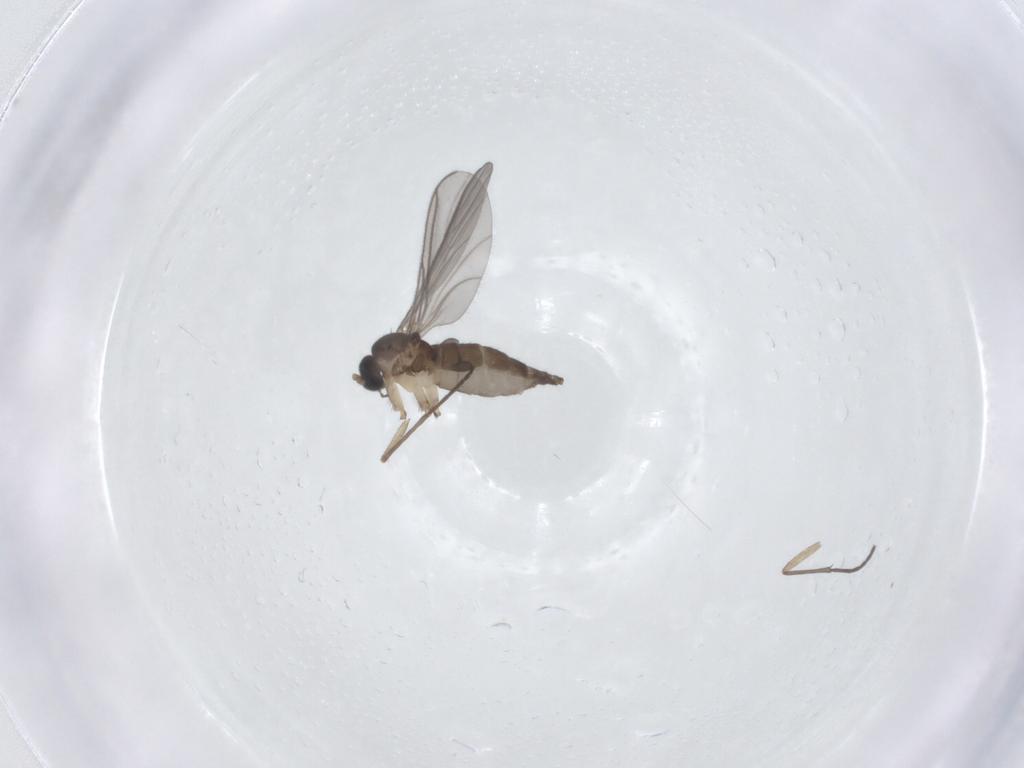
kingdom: Animalia
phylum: Arthropoda
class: Insecta
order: Diptera
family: Sciaridae
